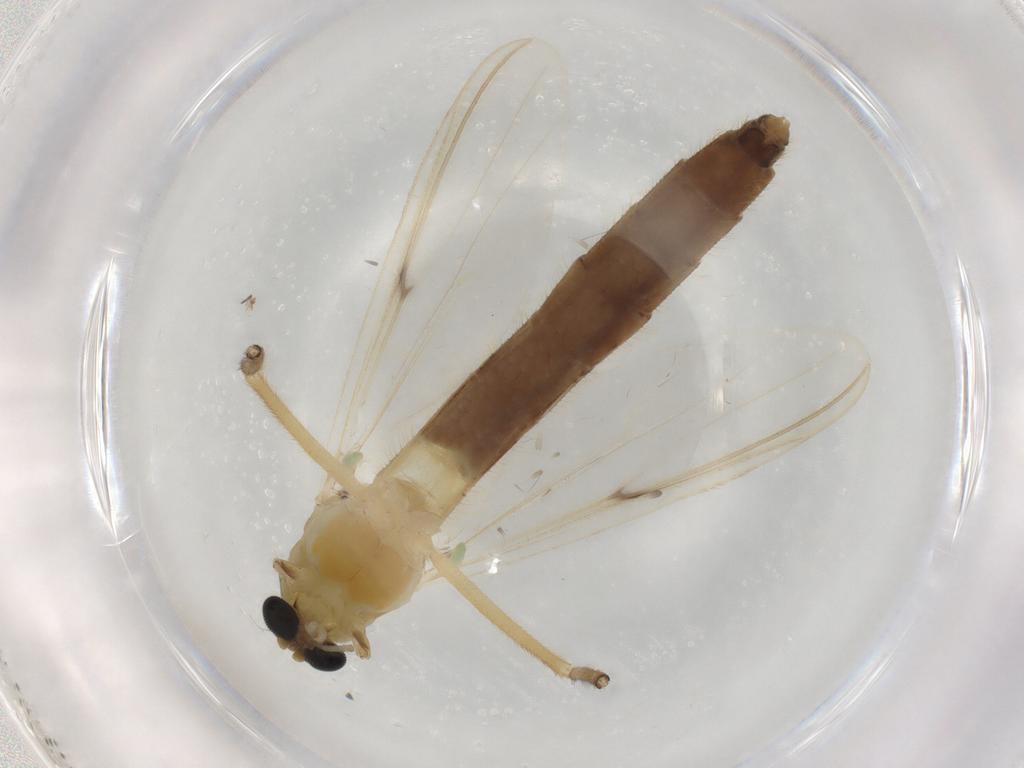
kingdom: Animalia
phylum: Arthropoda
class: Insecta
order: Diptera
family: Chironomidae
